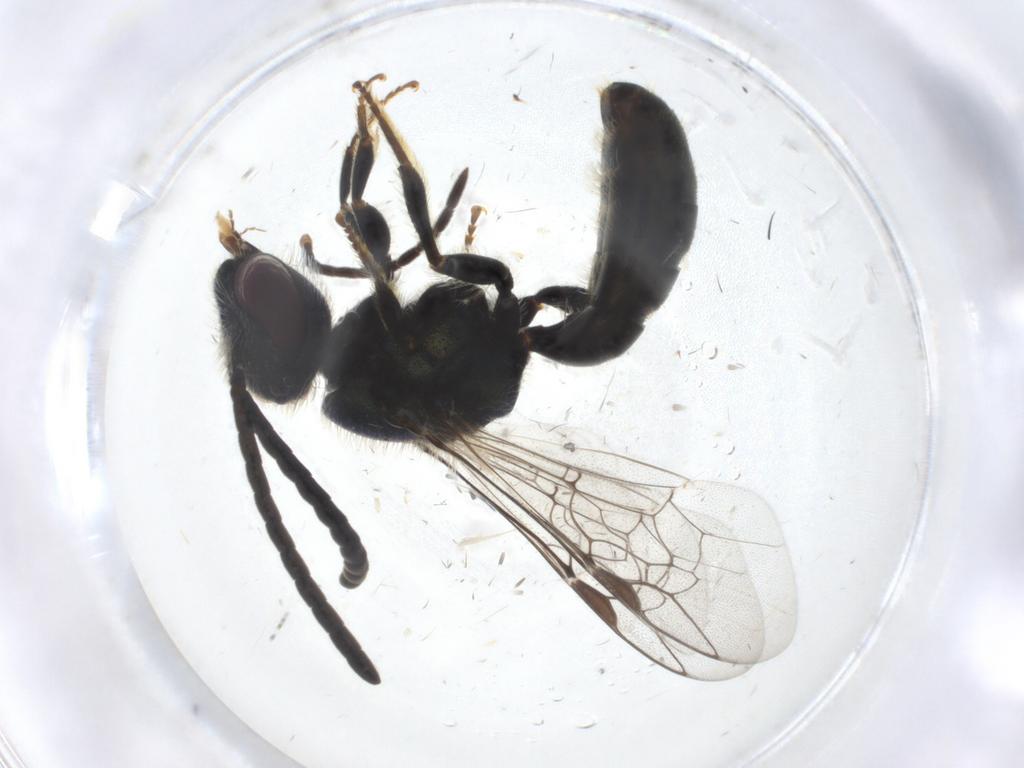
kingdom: Animalia
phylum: Arthropoda
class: Insecta
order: Hymenoptera
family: Formicidae
